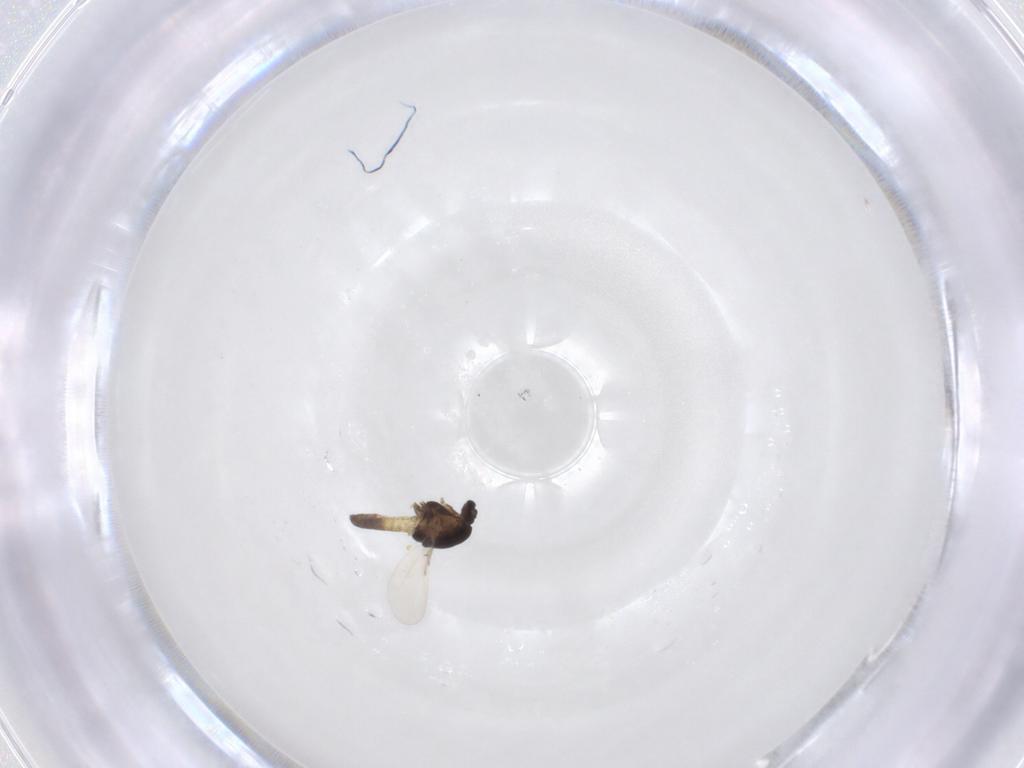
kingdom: Animalia
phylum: Arthropoda
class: Insecta
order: Diptera
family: Chironomidae
